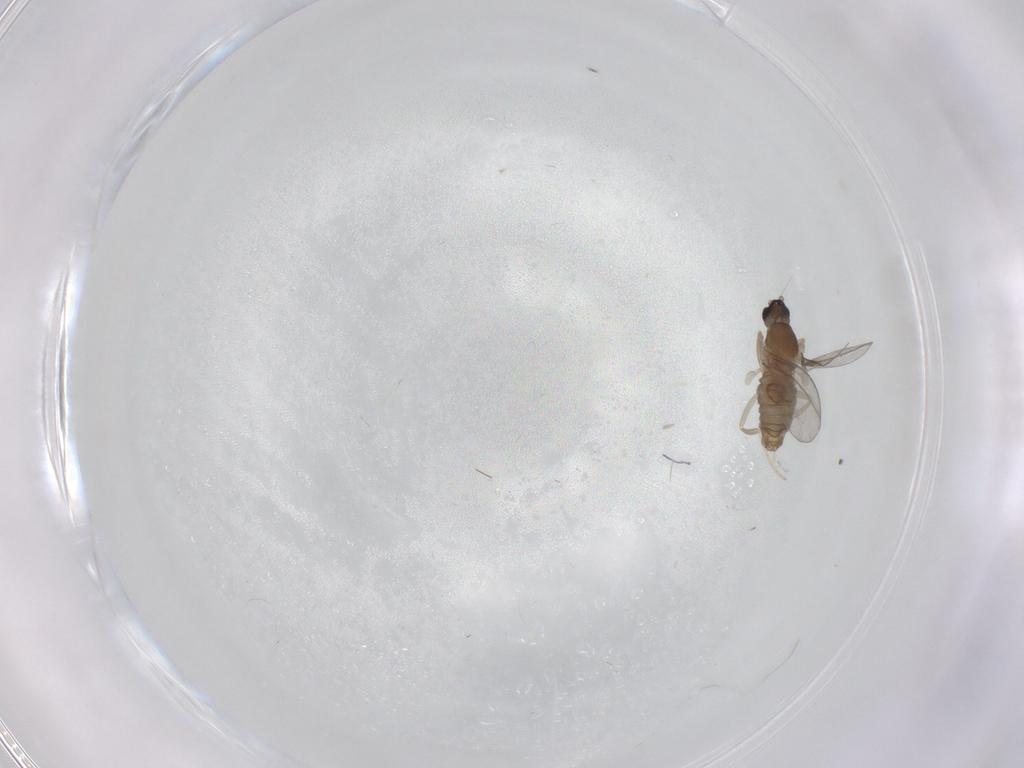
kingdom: Animalia
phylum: Arthropoda
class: Insecta
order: Diptera
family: Cecidomyiidae
